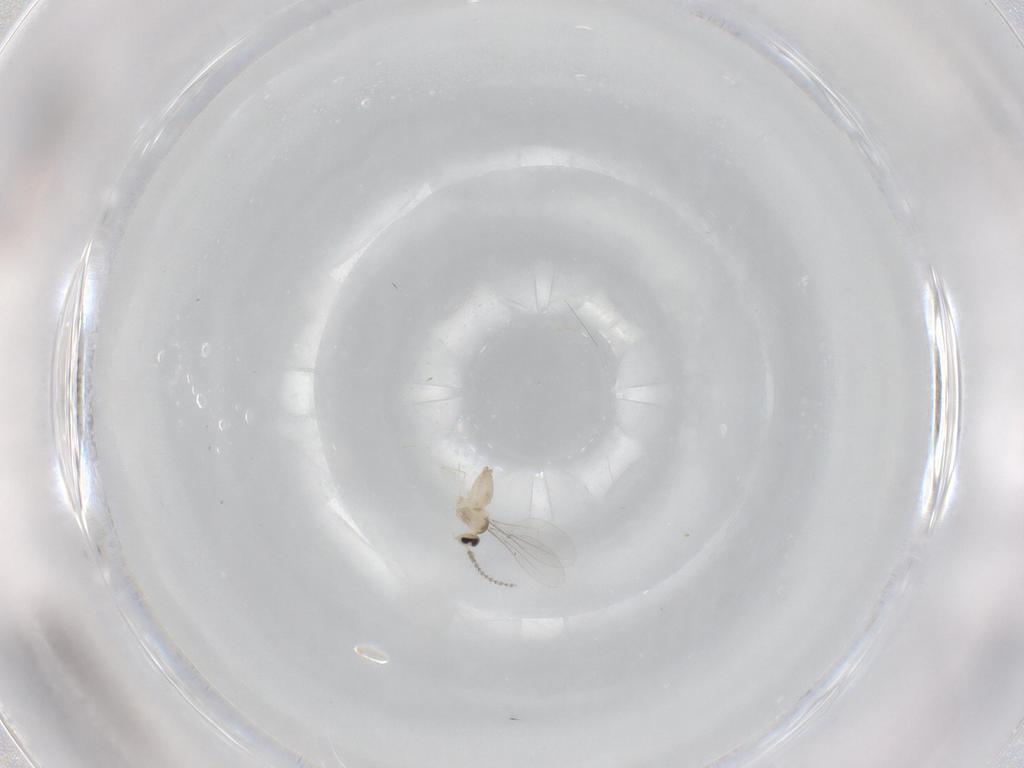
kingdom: Animalia
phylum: Arthropoda
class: Insecta
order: Diptera
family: Cecidomyiidae
